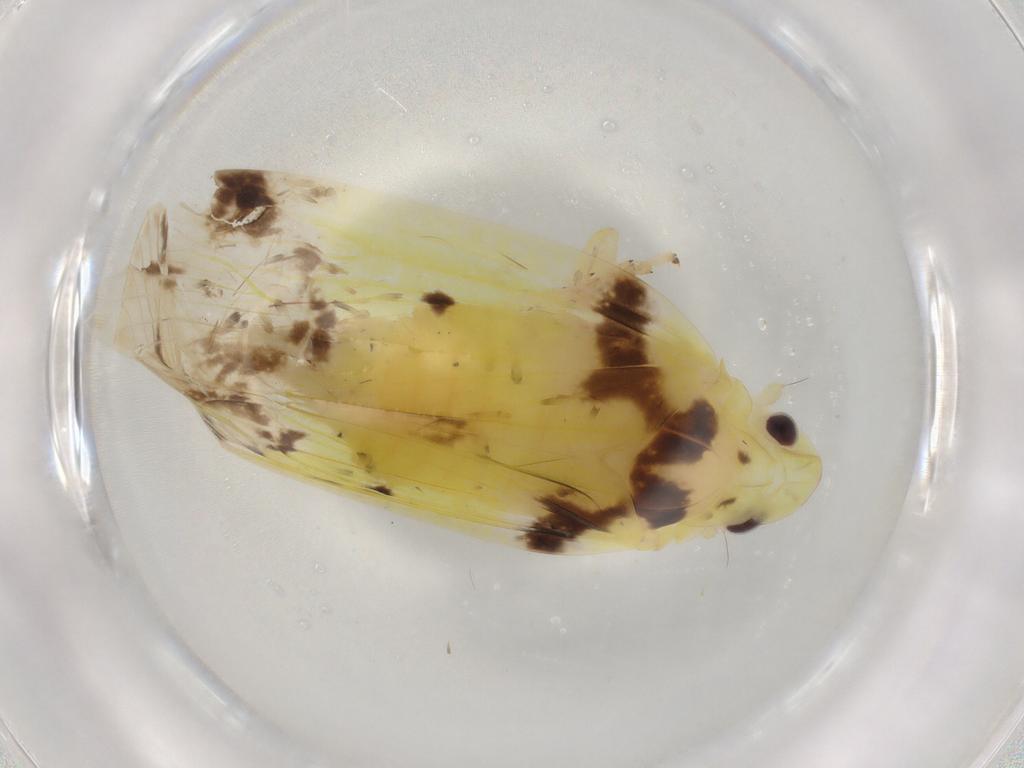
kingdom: Animalia
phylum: Arthropoda
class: Insecta
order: Hemiptera
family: Tropiduchidae
